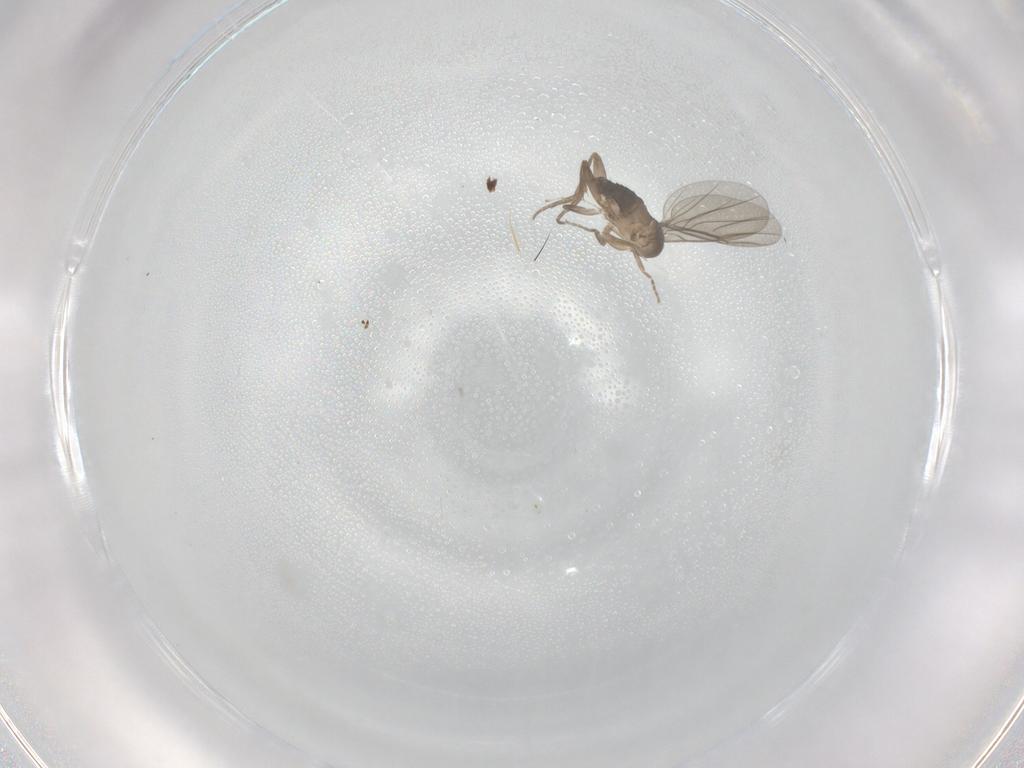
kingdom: Animalia
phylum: Arthropoda
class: Insecta
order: Diptera
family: Phoridae
